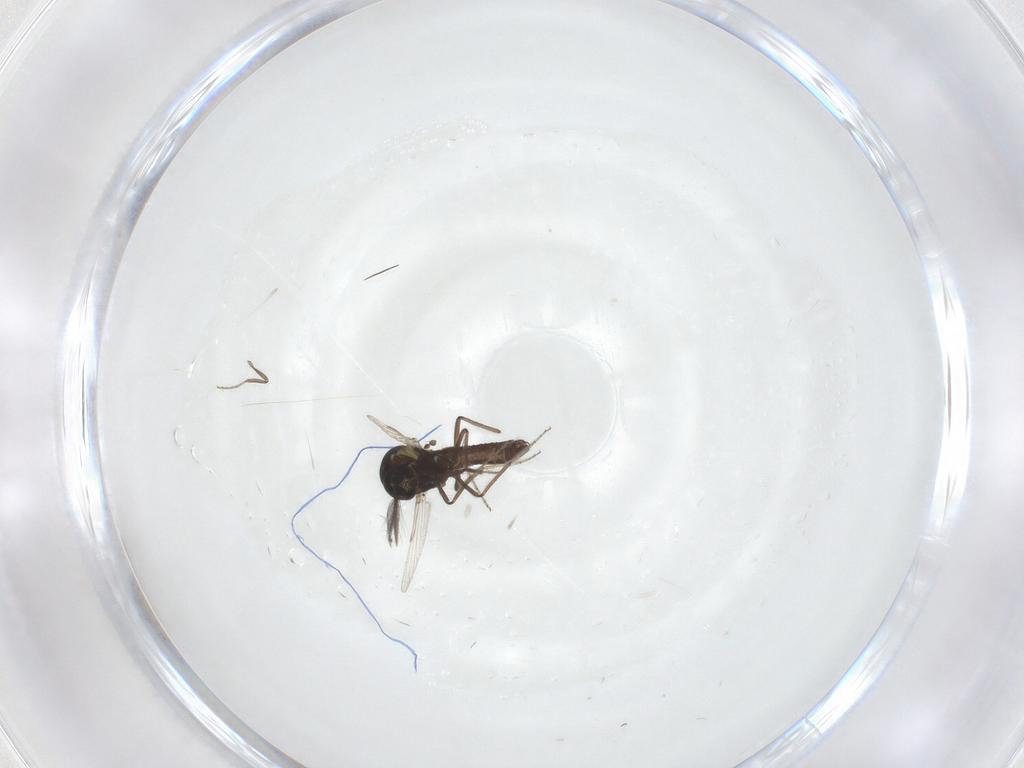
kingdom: Animalia
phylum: Arthropoda
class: Insecta
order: Diptera
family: Ceratopogonidae
